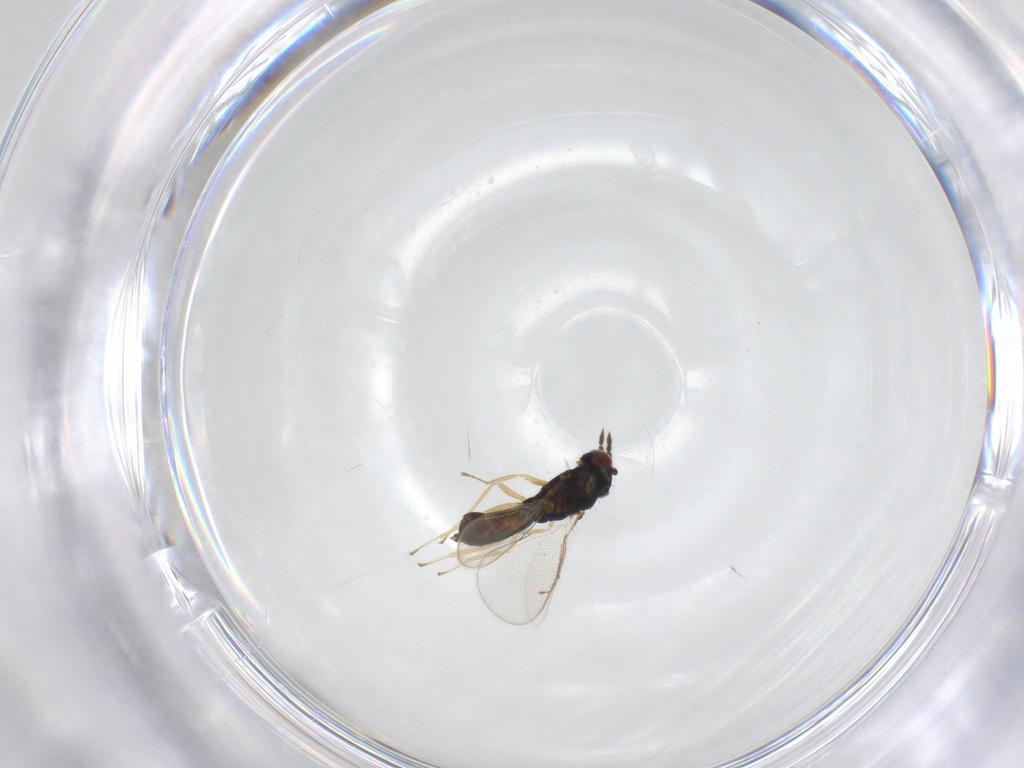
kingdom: Animalia
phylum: Arthropoda
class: Insecta
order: Hymenoptera
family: Eulophidae
